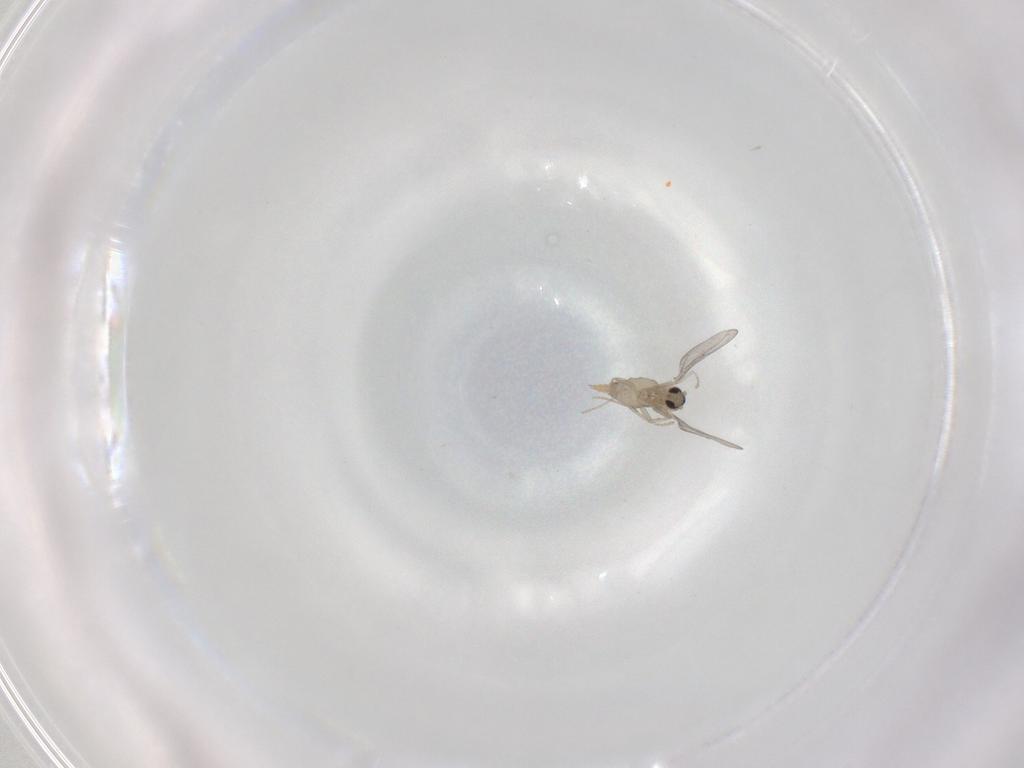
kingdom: Animalia
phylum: Arthropoda
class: Insecta
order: Diptera
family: Cecidomyiidae
